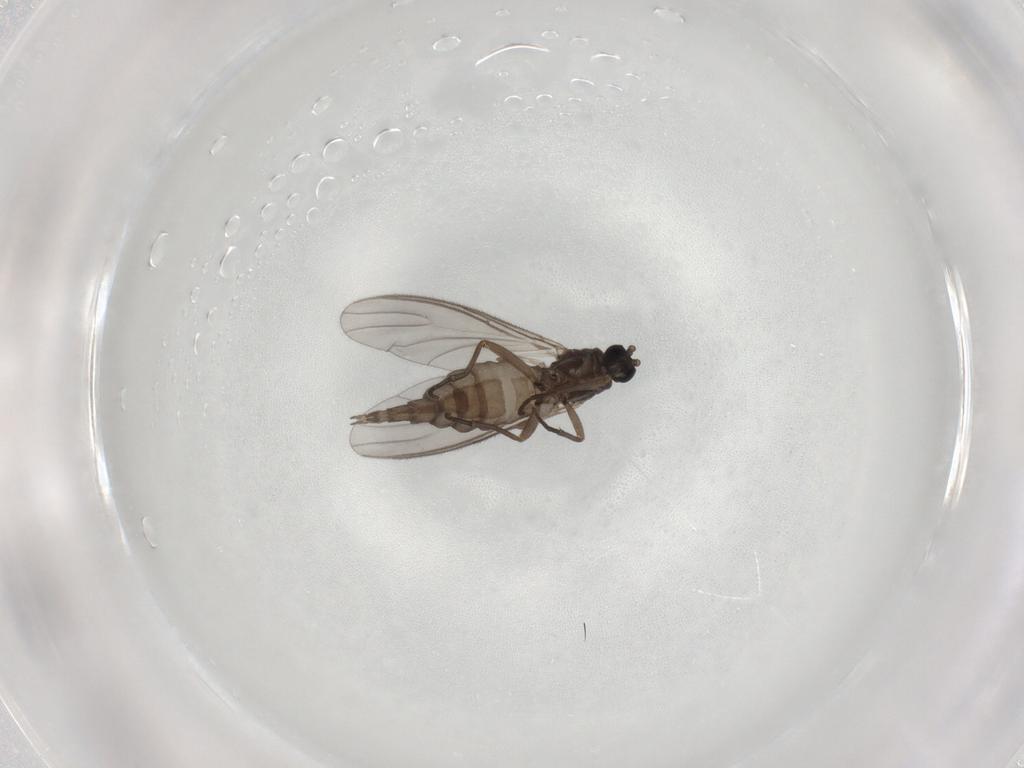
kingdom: Animalia
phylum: Arthropoda
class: Insecta
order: Diptera
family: Sciaridae
